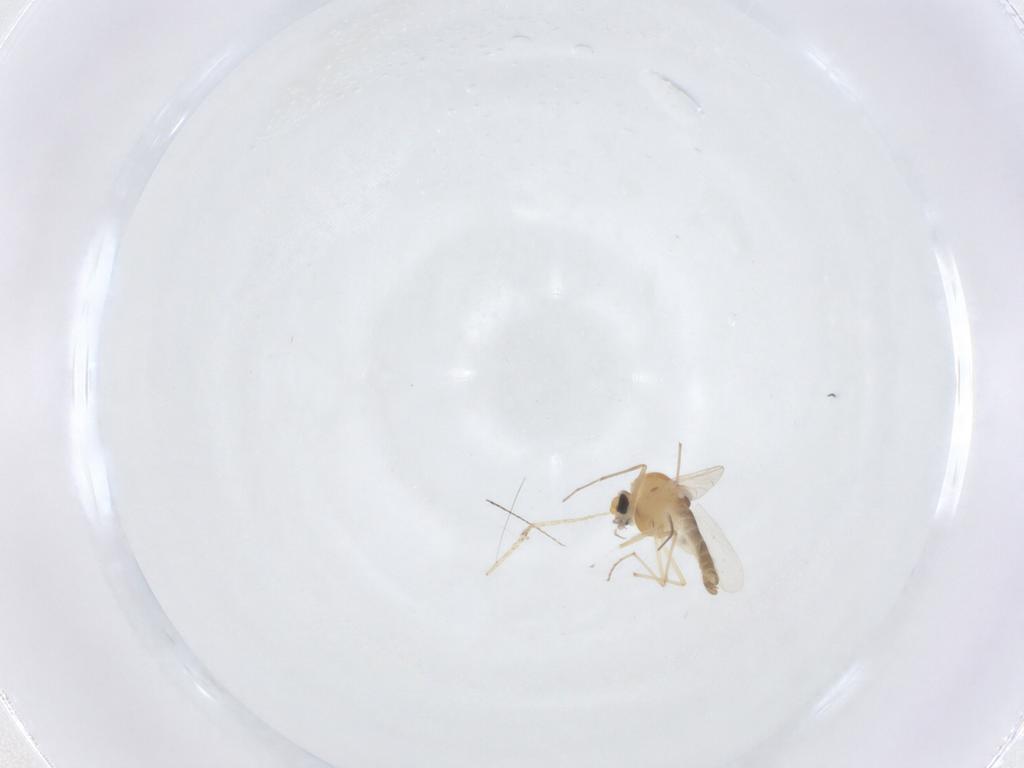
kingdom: Animalia
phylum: Arthropoda
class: Insecta
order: Diptera
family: Chironomidae
